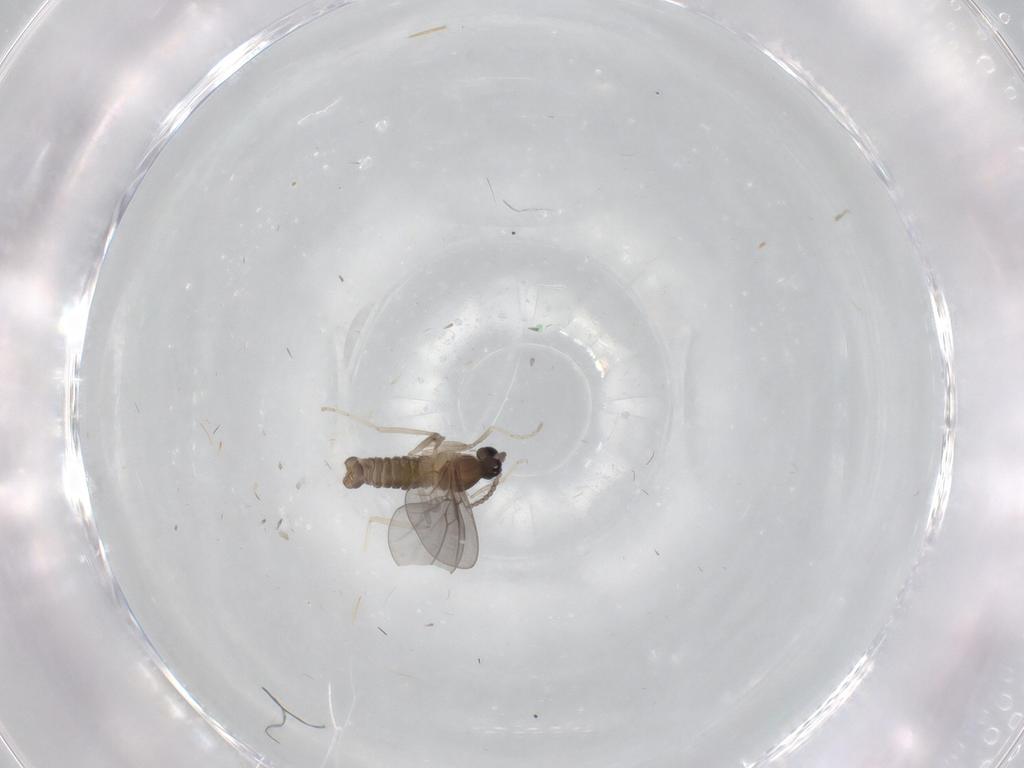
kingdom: Animalia
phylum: Arthropoda
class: Insecta
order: Diptera
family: Cecidomyiidae
